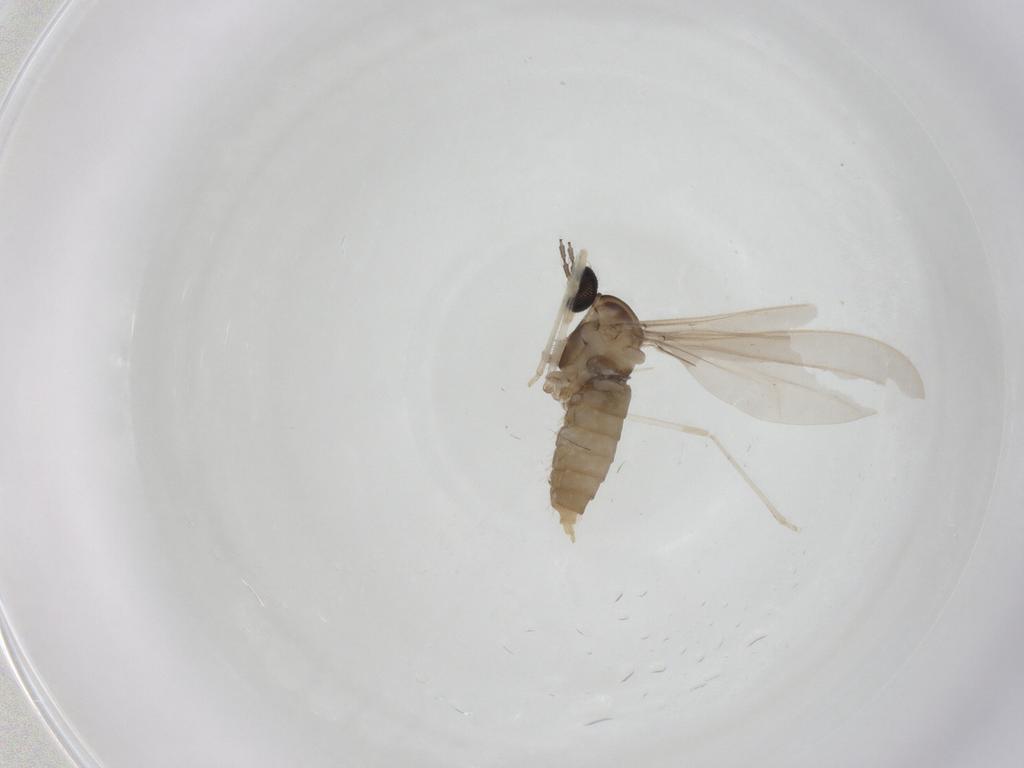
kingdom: Animalia
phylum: Arthropoda
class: Insecta
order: Diptera
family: Cecidomyiidae
